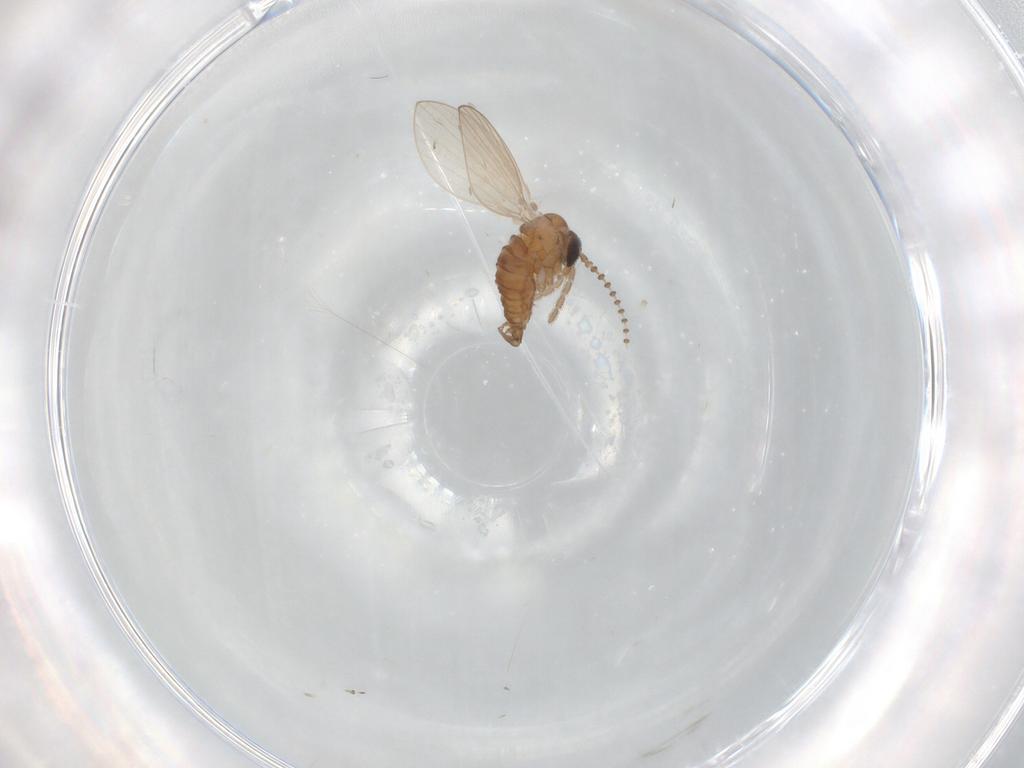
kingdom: Animalia
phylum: Arthropoda
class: Insecta
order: Diptera
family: Psychodidae
